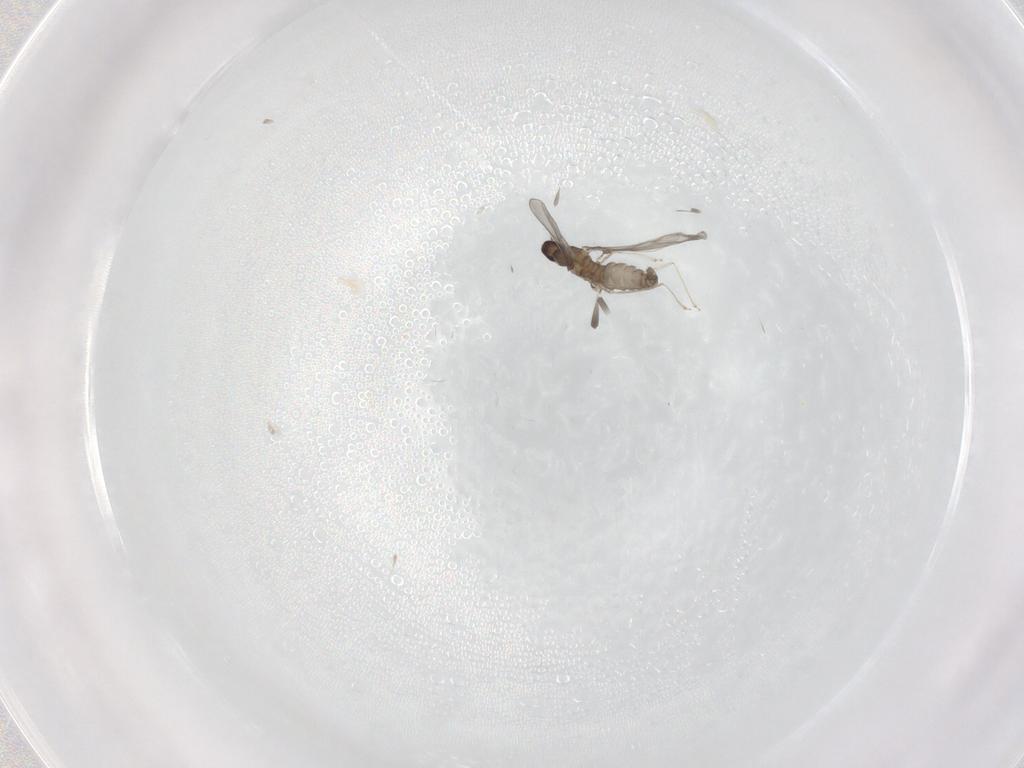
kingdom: Animalia
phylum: Arthropoda
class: Insecta
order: Diptera
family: Cecidomyiidae
